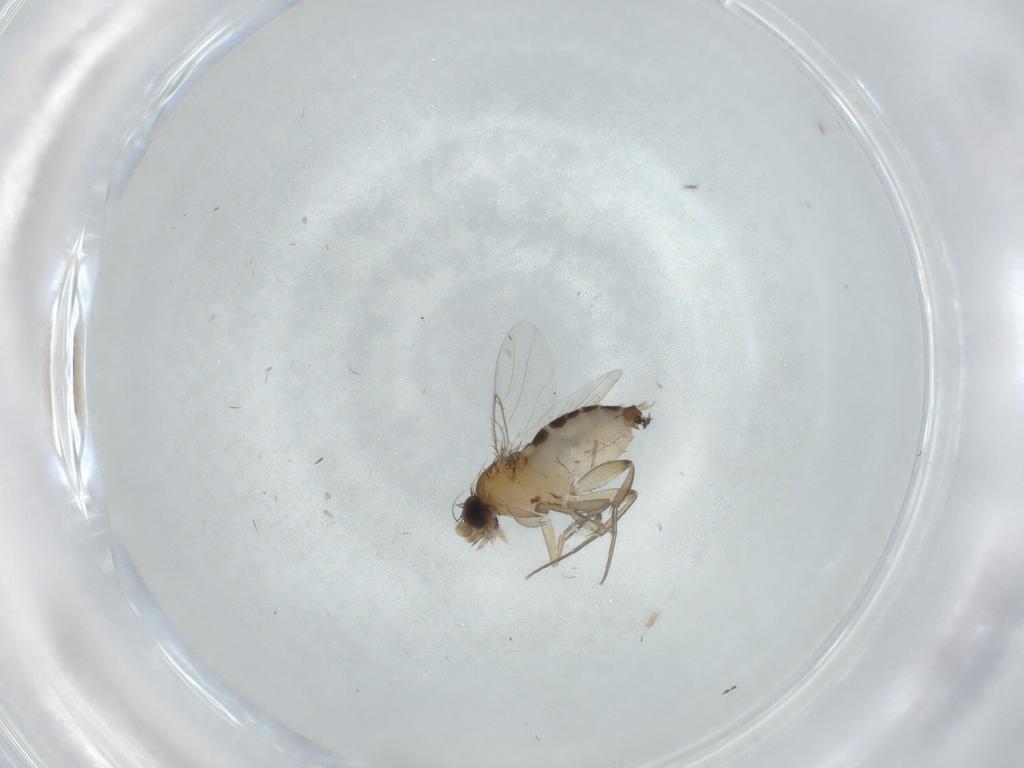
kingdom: Animalia
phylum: Arthropoda
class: Insecta
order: Diptera
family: Phoridae
